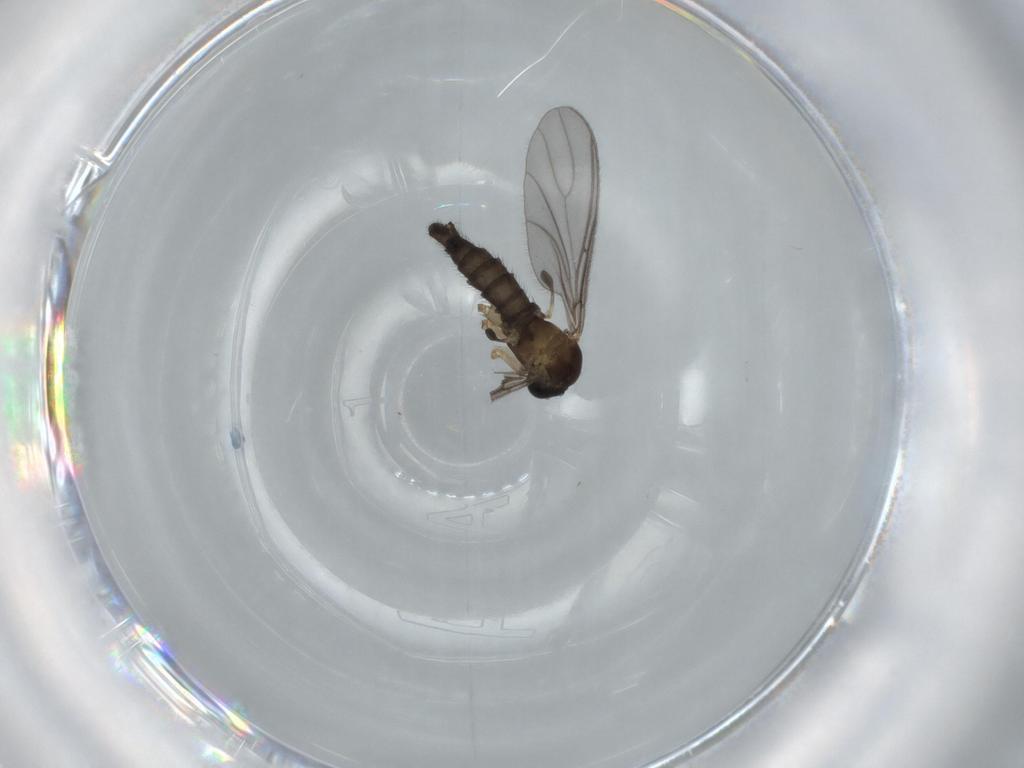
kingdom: Animalia
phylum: Arthropoda
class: Insecta
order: Diptera
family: Sciaridae
